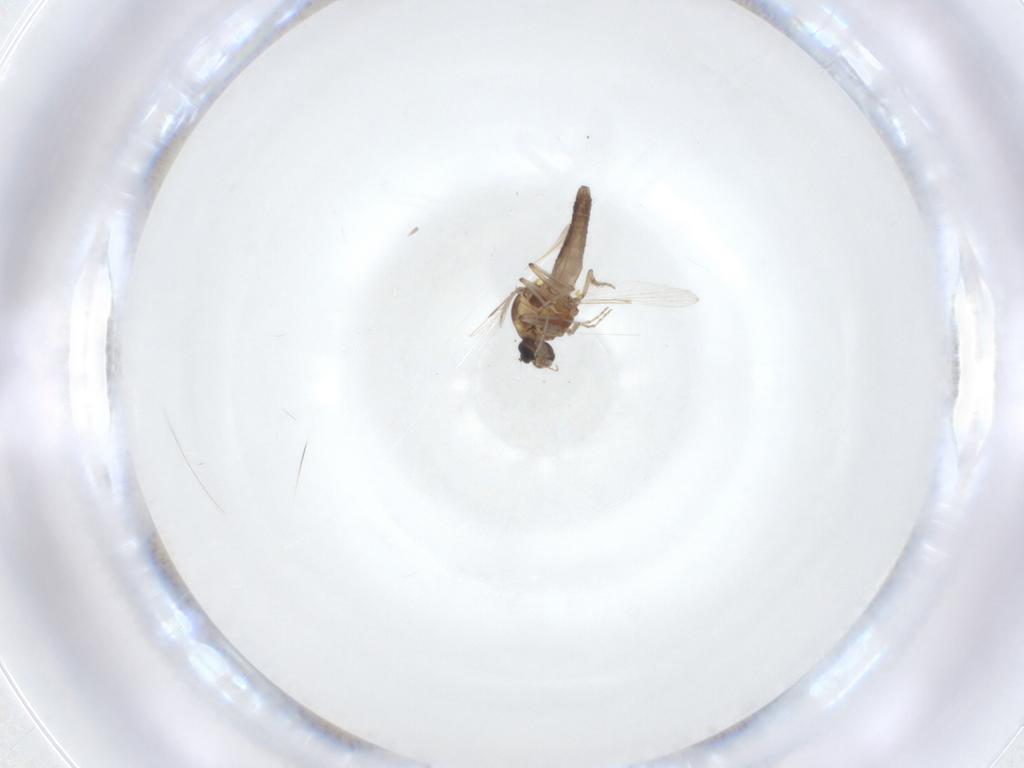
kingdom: Animalia
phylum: Arthropoda
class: Insecta
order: Diptera
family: Ceratopogonidae
